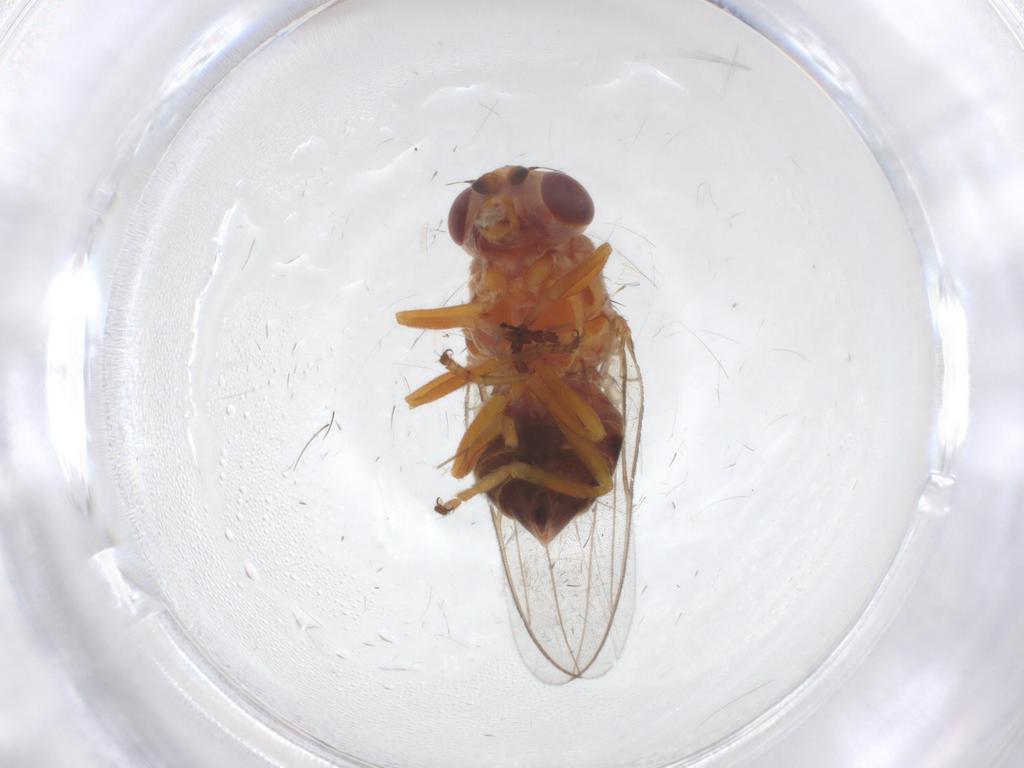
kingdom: Animalia
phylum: Arthropoda
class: Insecta
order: Diptera
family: Chloropidae
